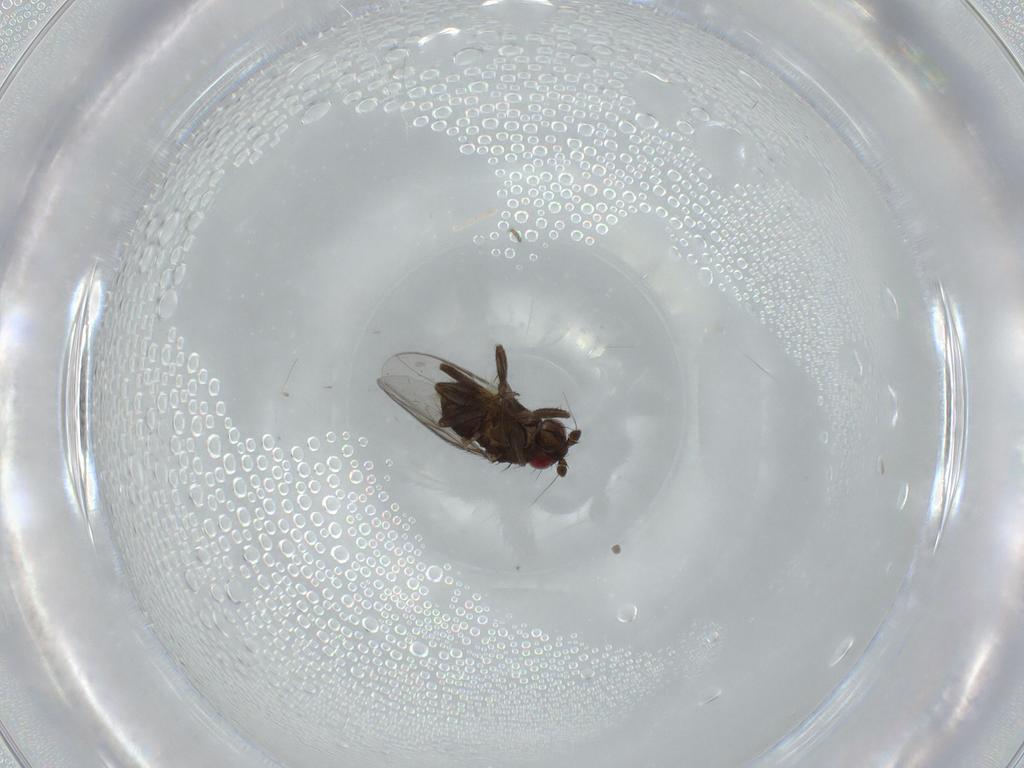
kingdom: Animalia
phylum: Arthropoda
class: Insecta
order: Diptera
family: Sphaeroceridae
